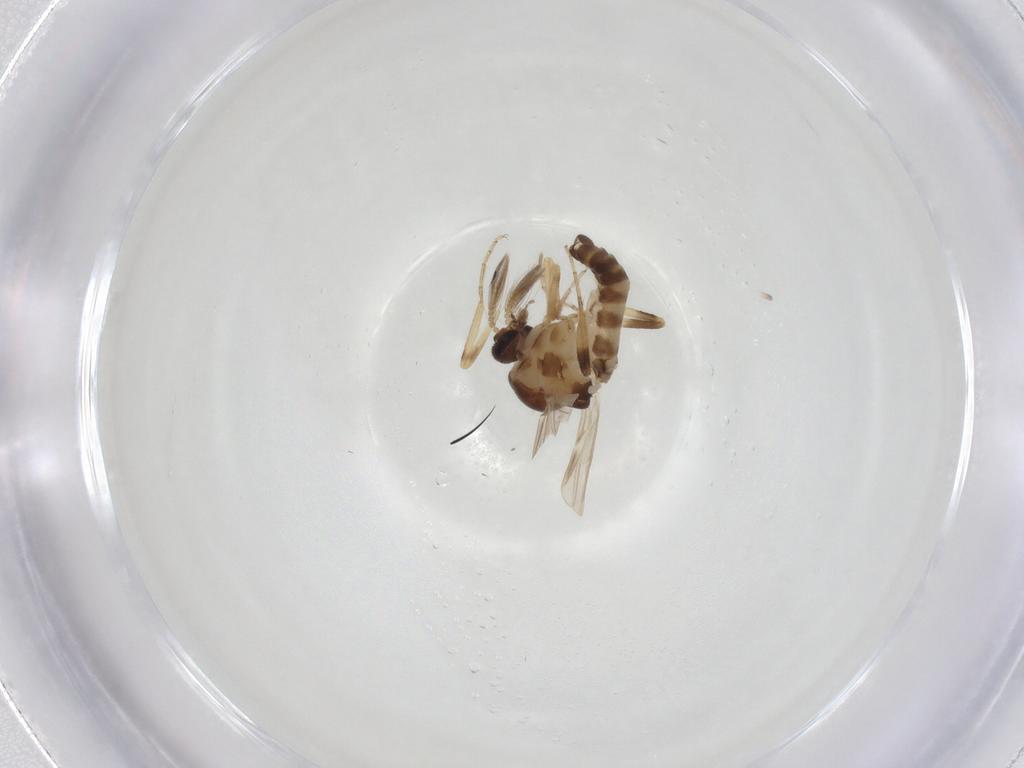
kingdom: Animalia
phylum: Arthropoda
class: Insecta
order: Diptera
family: Ceratopogonidae
